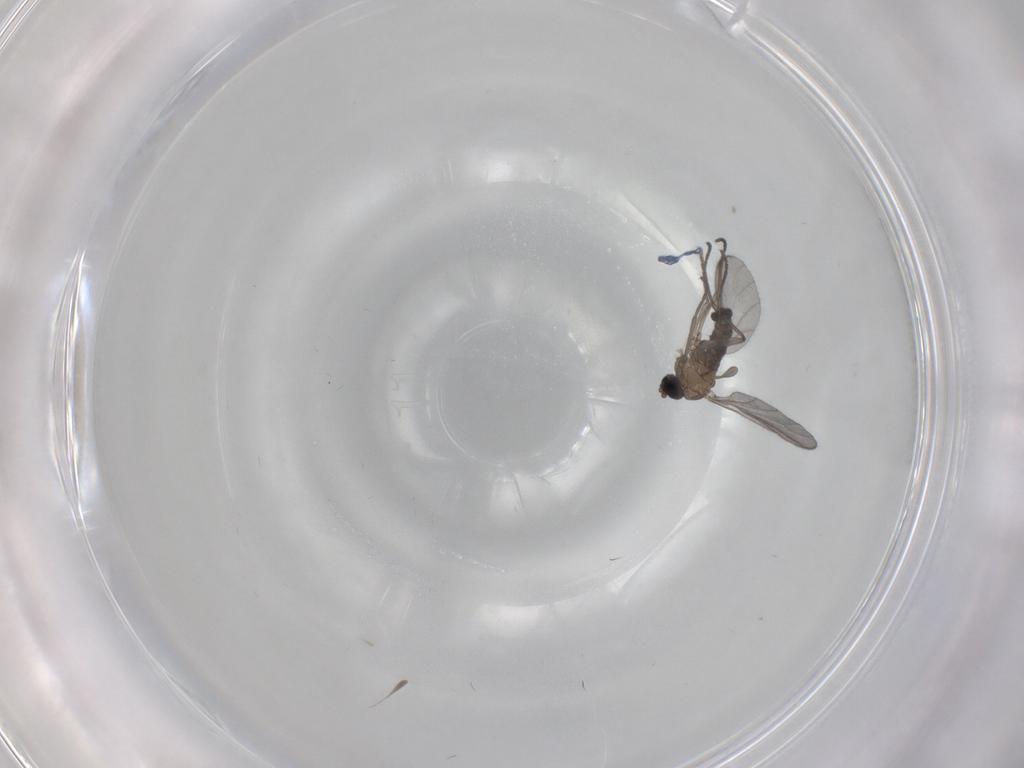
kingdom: Animalia
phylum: Arthropoda
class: Insecta
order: Diptera
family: Sciaridae
